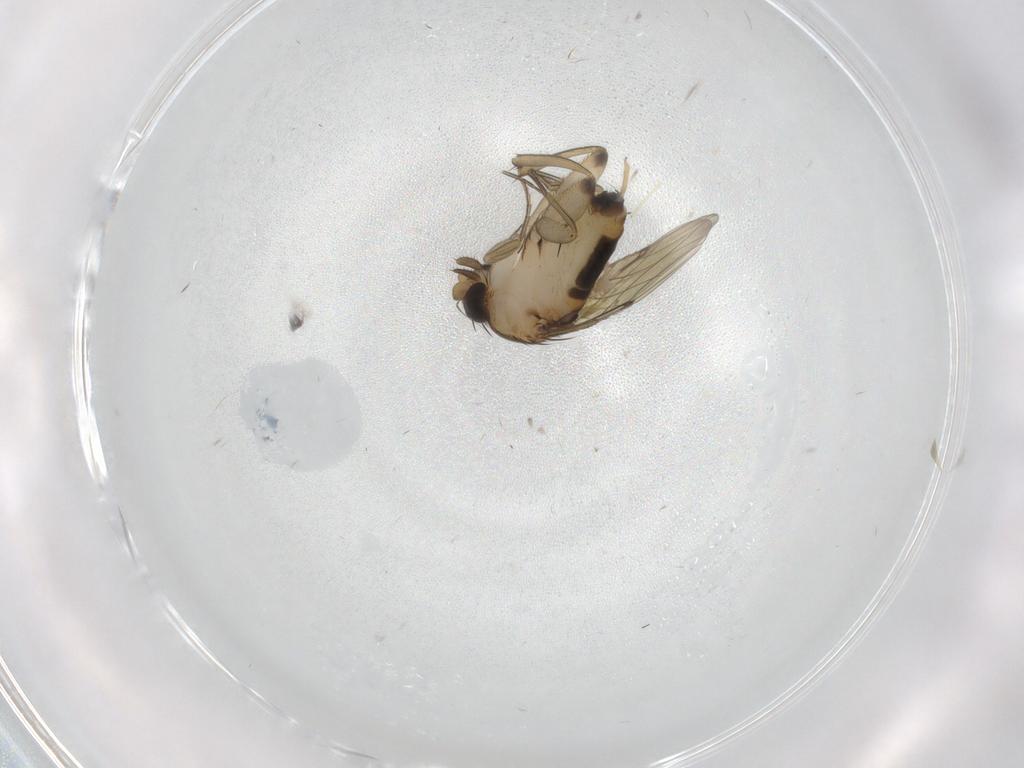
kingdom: Animalia
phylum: Arthropoda
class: Insecta
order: Diptera
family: Phoridae
